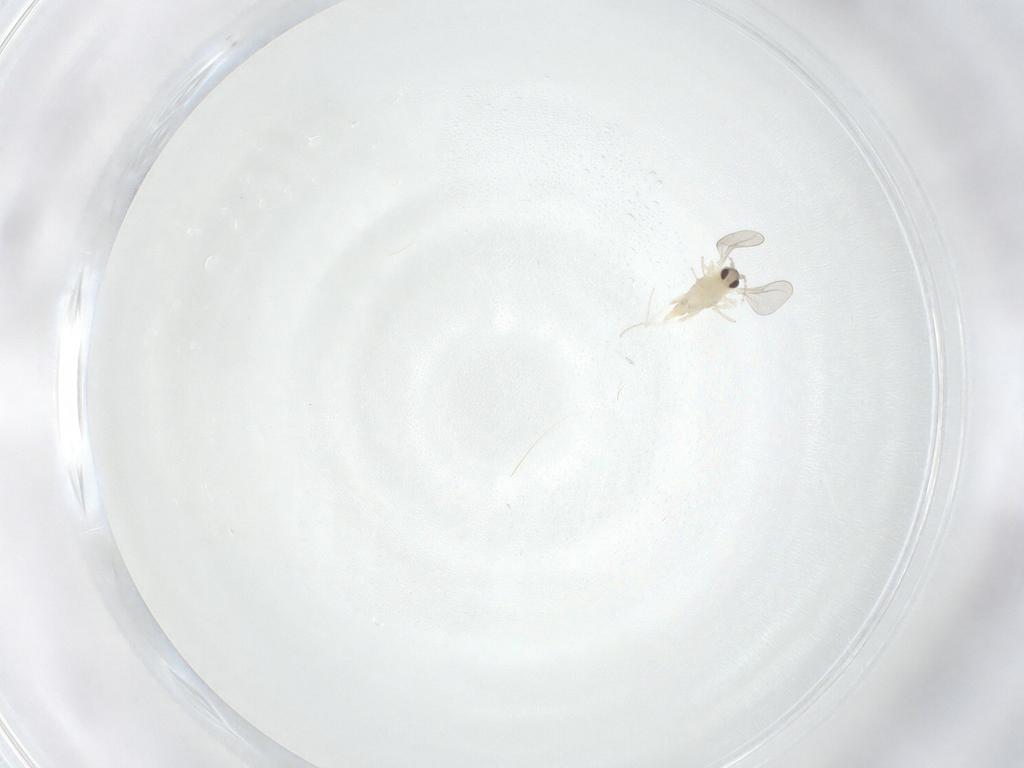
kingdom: Animalia
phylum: Arthropoda
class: Insecta
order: Diptera
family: Cecidomyiidae
